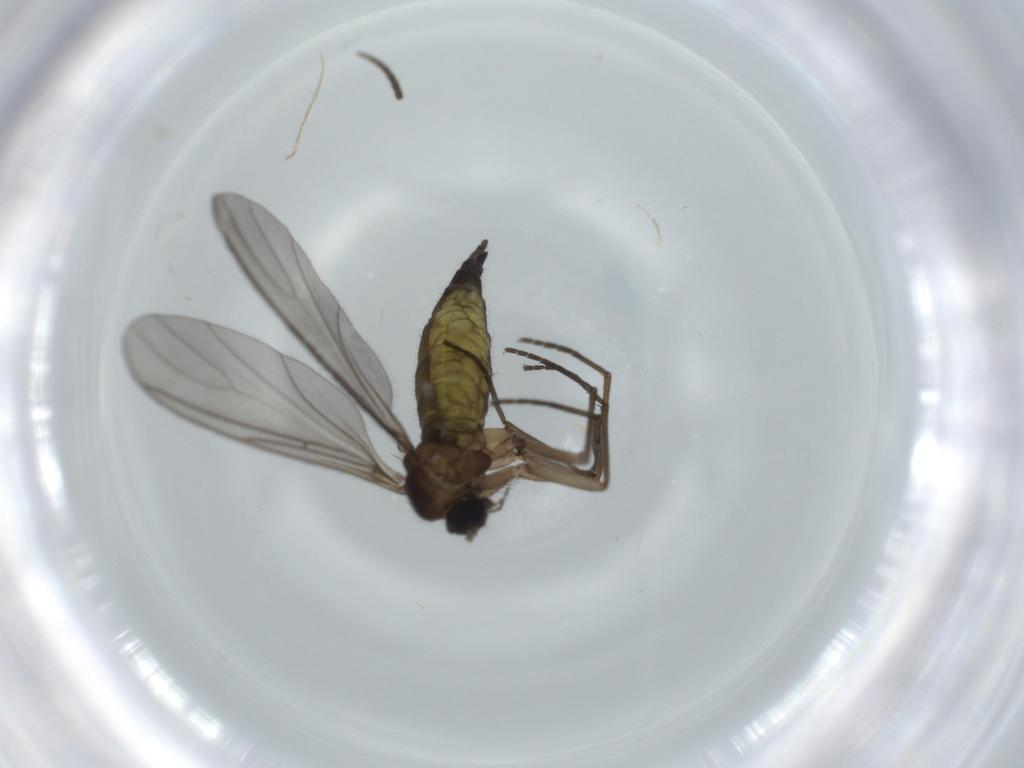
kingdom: Animalia
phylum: Arthropoda
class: Insecta
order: Diptera
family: Sciaridae
